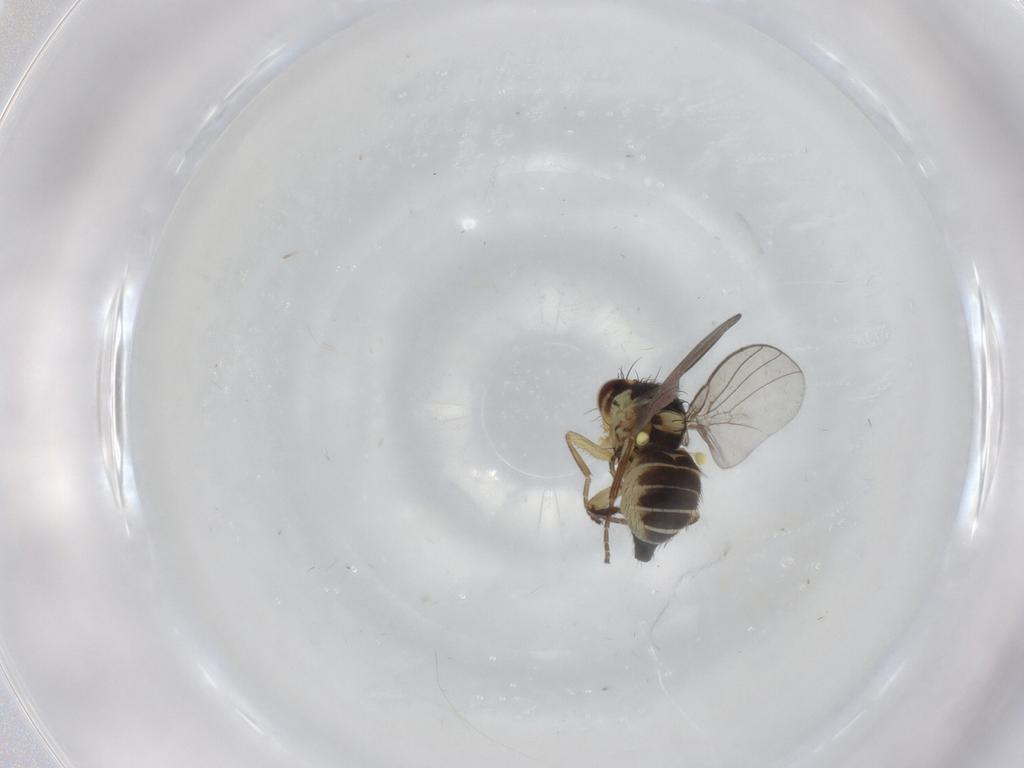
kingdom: Animalia
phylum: Arthropoda
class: Insecta
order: Diptera
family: Agromyzidae
